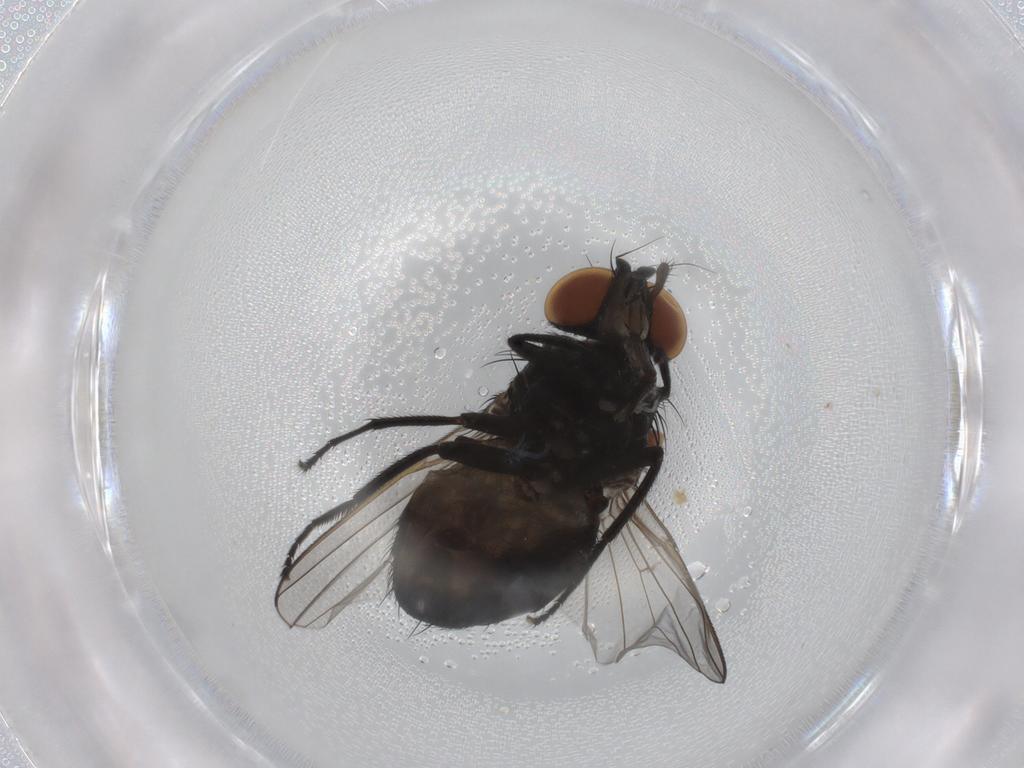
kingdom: Animalia
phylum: Arthropoda
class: Insecta
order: Diptera
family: Milichiidae
